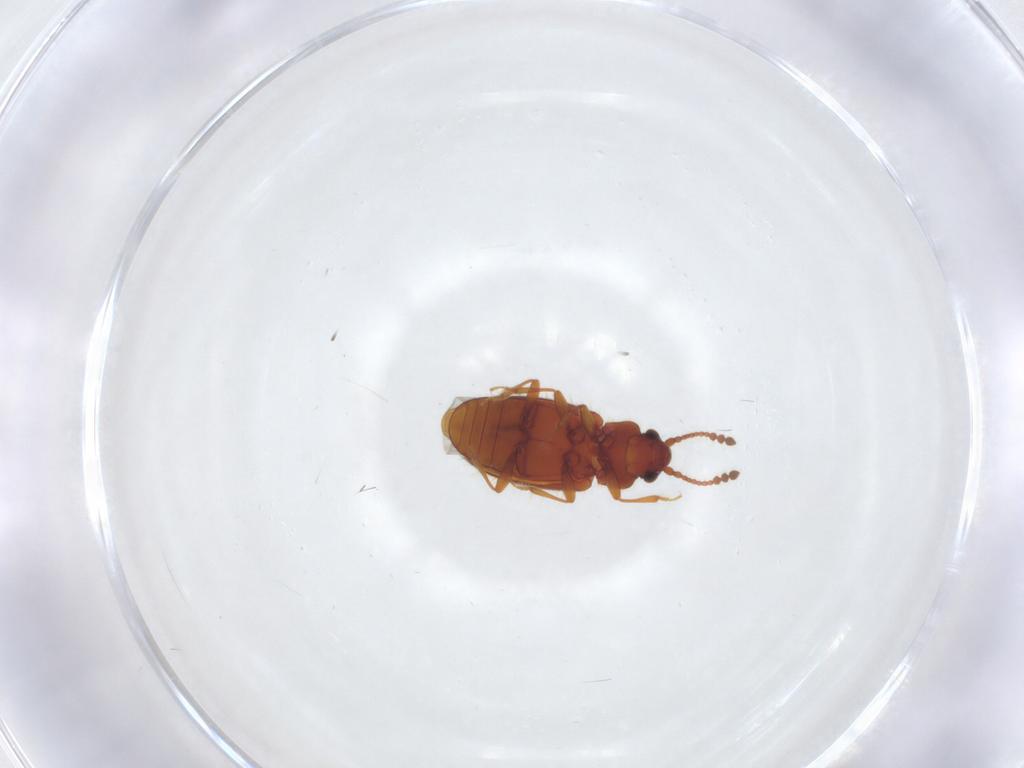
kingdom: Animalia
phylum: Arthropoda
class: Insecta
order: Coleoptera
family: Cryptophagidae
